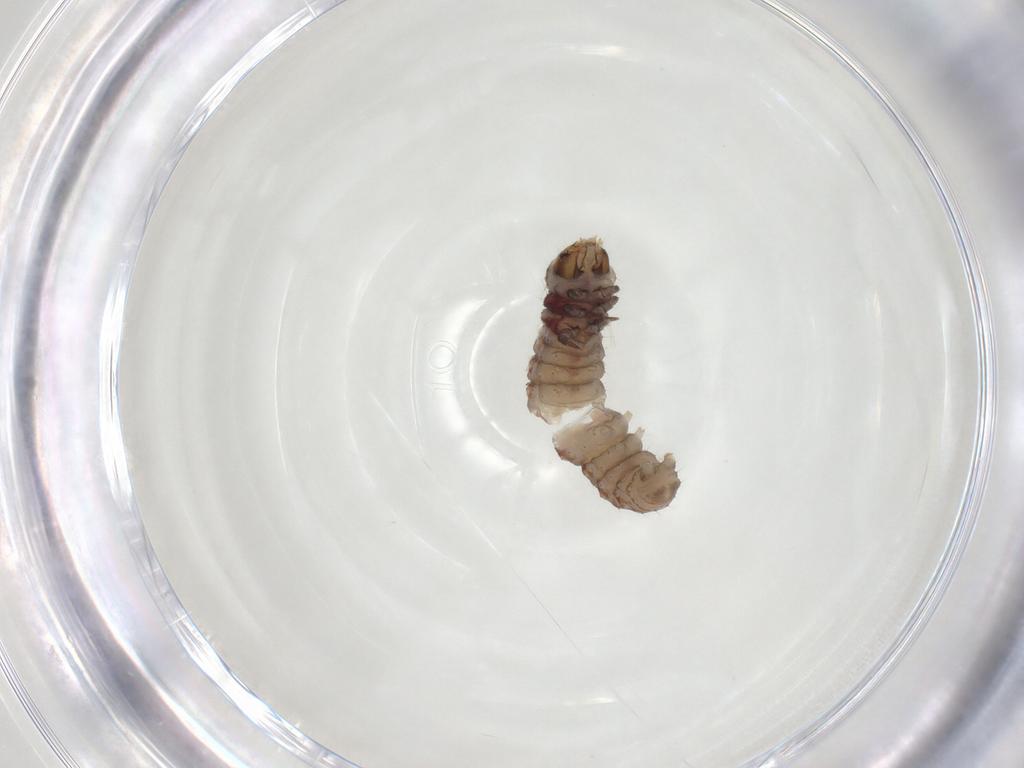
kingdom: Animalia
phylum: Arthropoda
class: Insecta
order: Lepidoptera
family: Gelechiidae
